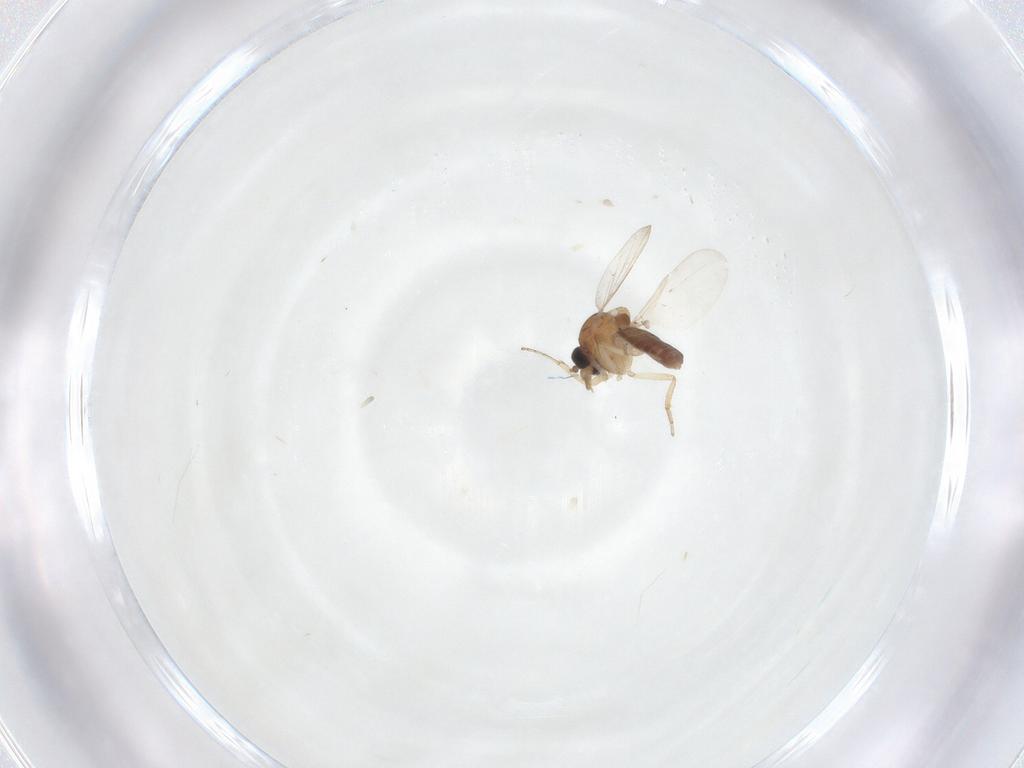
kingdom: Animalia
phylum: Arthropoda
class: Insecta
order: Diptera
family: Ceratopogonidae
